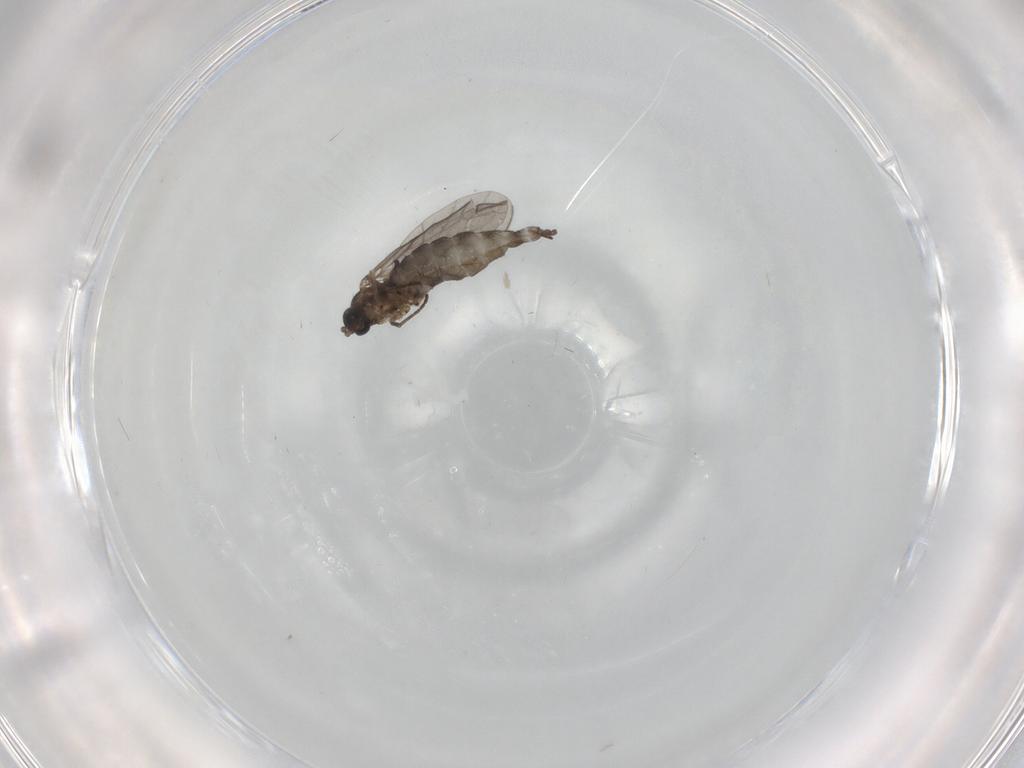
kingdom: Animalia
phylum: Arthropoda
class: Insecta
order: Diptera
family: Sciaridae
